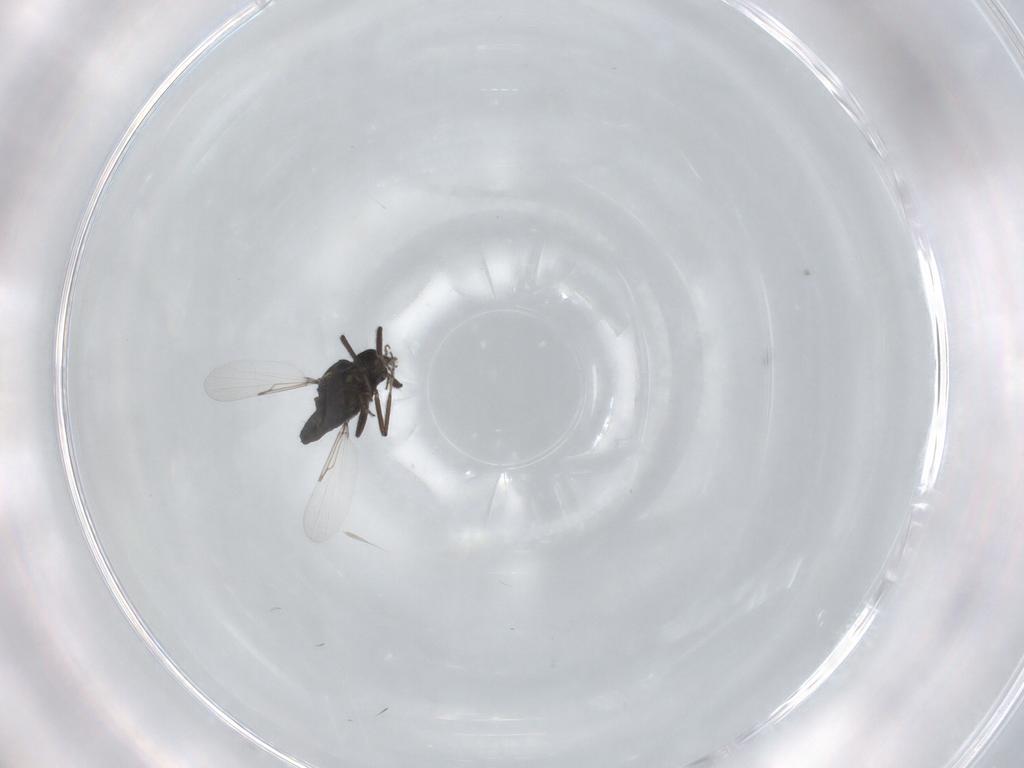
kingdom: Animalia
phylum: Arthropoda
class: Insecta
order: Diptera
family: Ceratopogonidae
